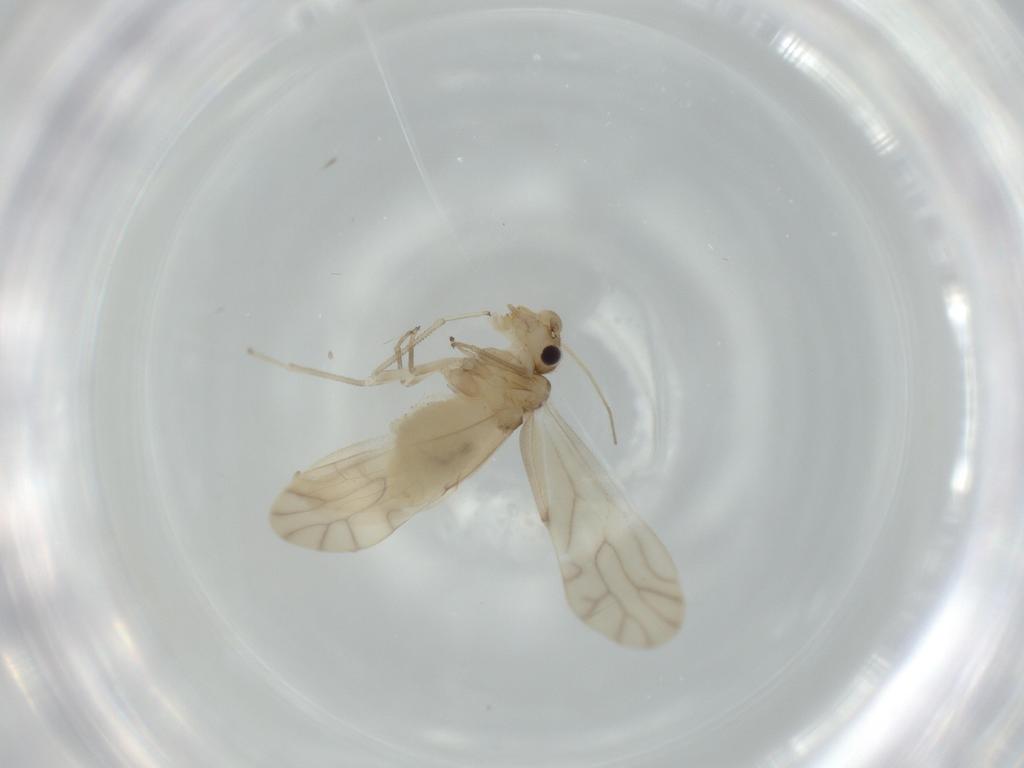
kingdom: Animalia
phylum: Arthropoda
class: Insecta
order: Psocodea
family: Caeciliusidae
